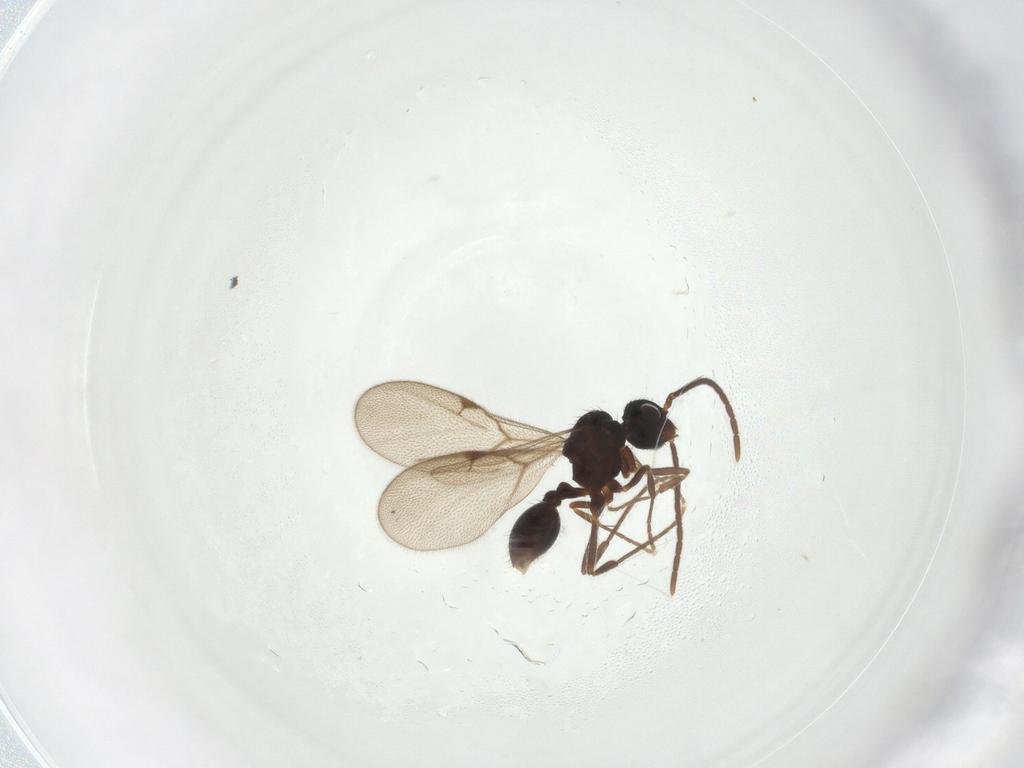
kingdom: Animalia
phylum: Arthropoda
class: Insecta
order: Hymenoptera
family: Formicidae
